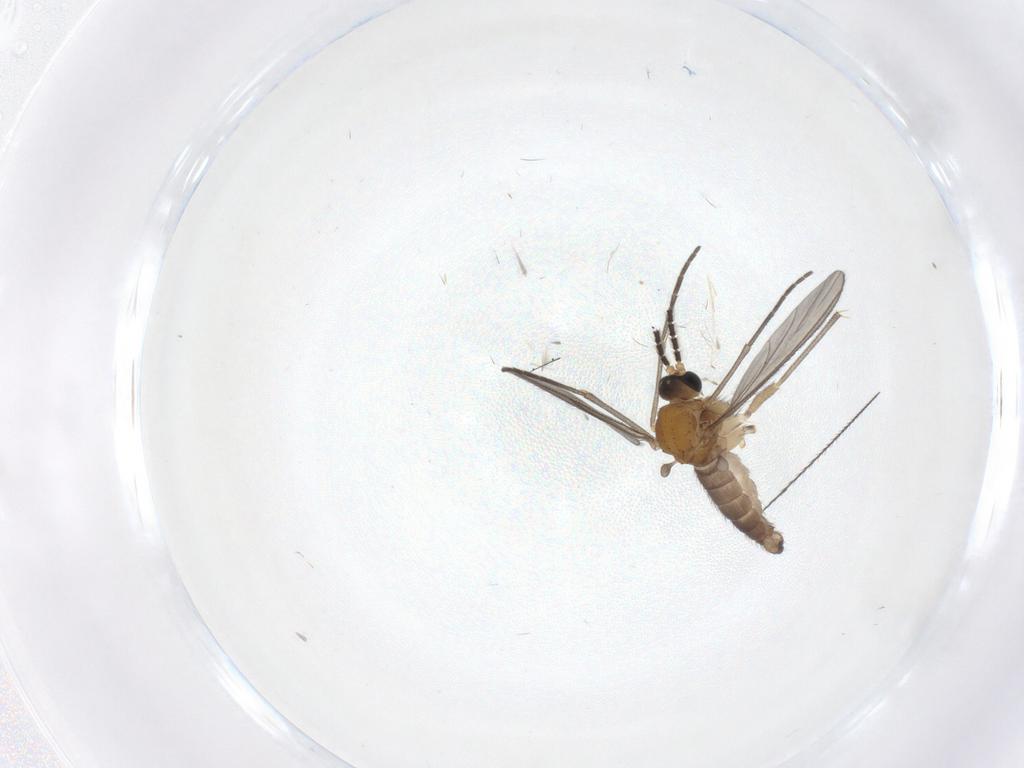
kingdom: Animalia
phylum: Arthropoda
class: Insecta
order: Diptera
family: Sciaridae
